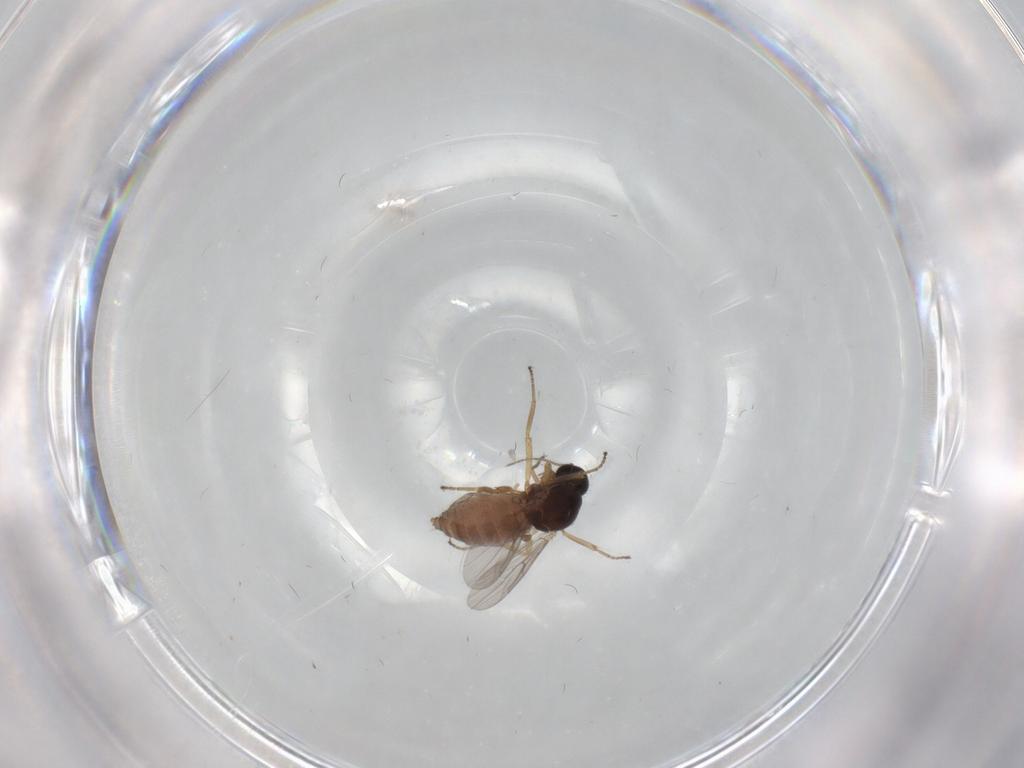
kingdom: Animalia
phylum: Arthropoda
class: Insecta
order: Diptera
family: Ceratopogonidae
